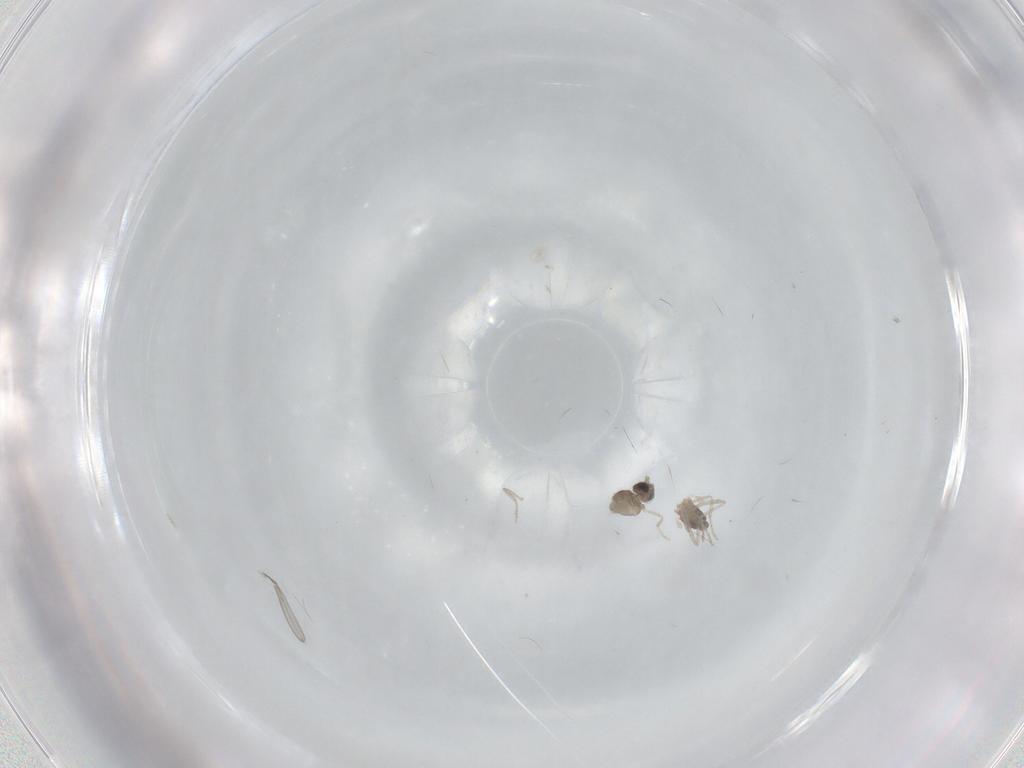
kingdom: Animalia
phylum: Arthropoda
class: Insecta
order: Diptera
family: Cecidomyiidae
